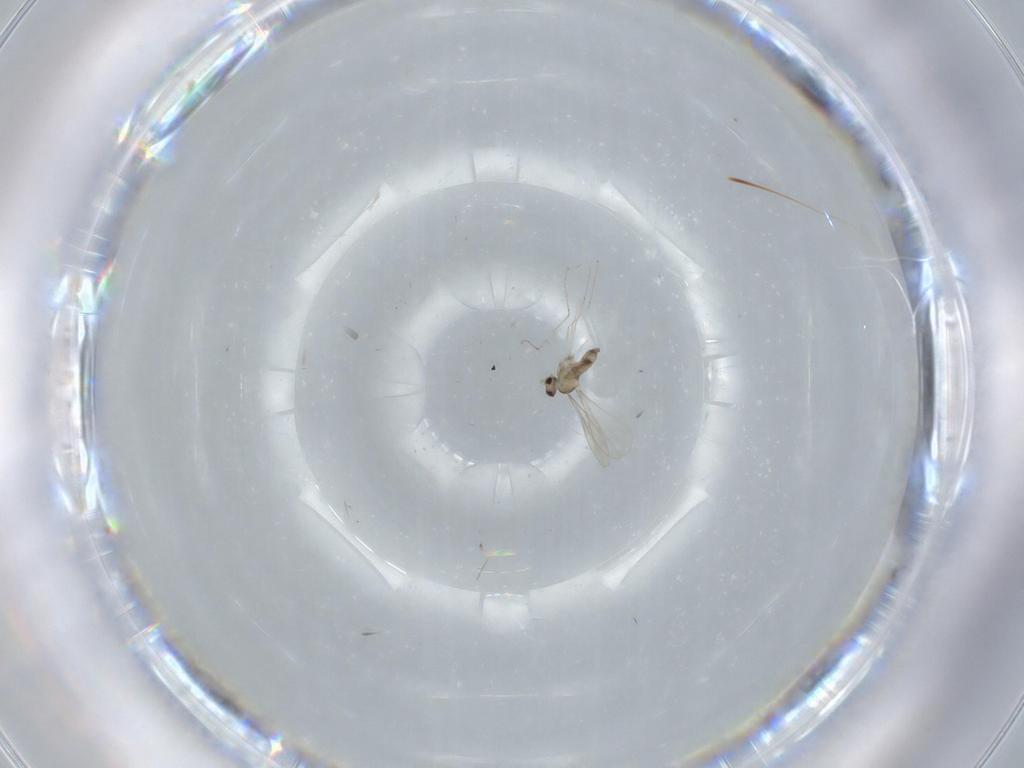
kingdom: Animalia
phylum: Arthropoda
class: Insecta
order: Diptera
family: Cecidomyiidae
